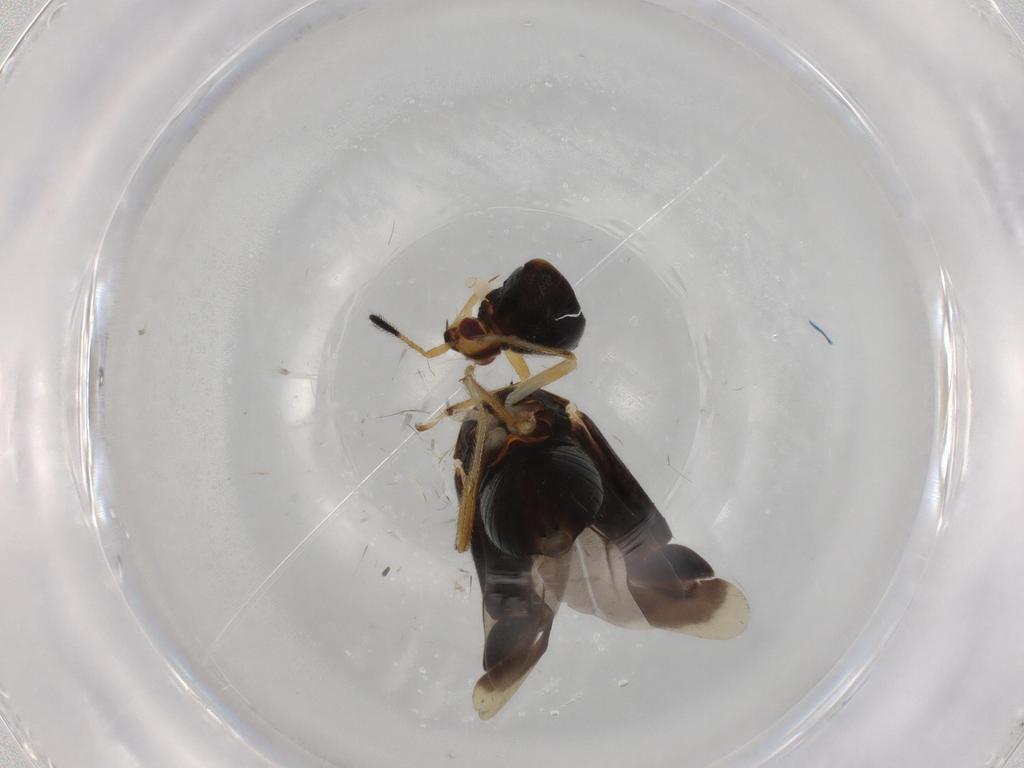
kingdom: Animalia
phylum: Arthropoda
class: Insecta
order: Hemiptera
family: Miridae
